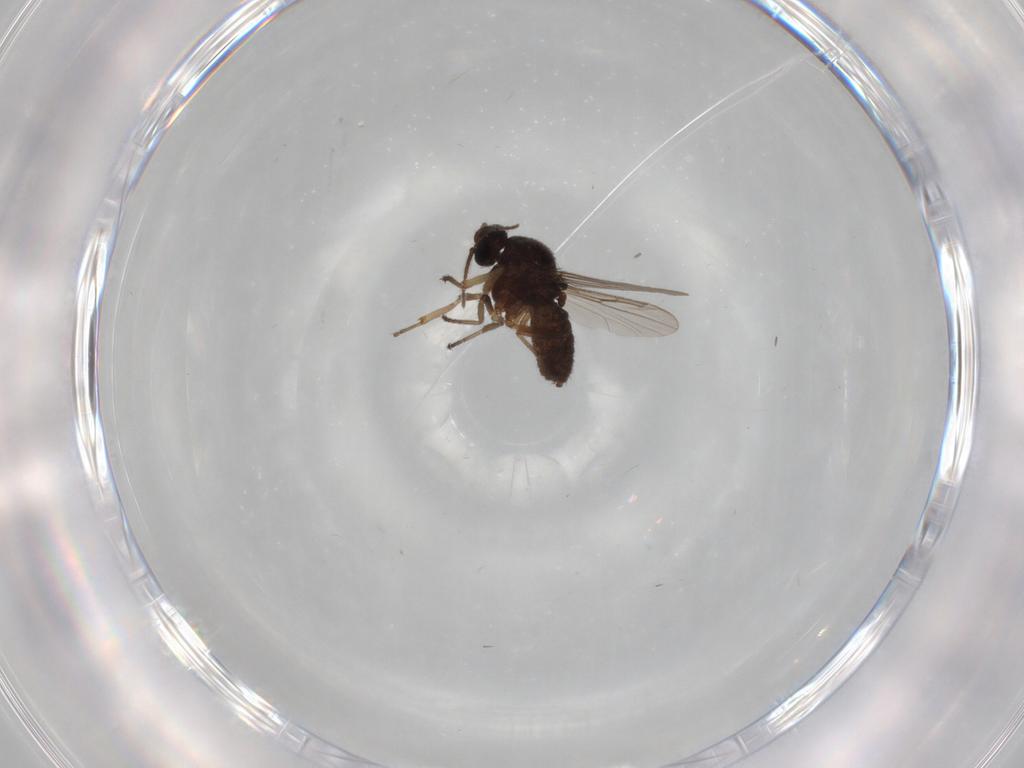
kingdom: Animalia
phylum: Arthropoda
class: Insecta
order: Diptera
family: Ceratopogonidae
